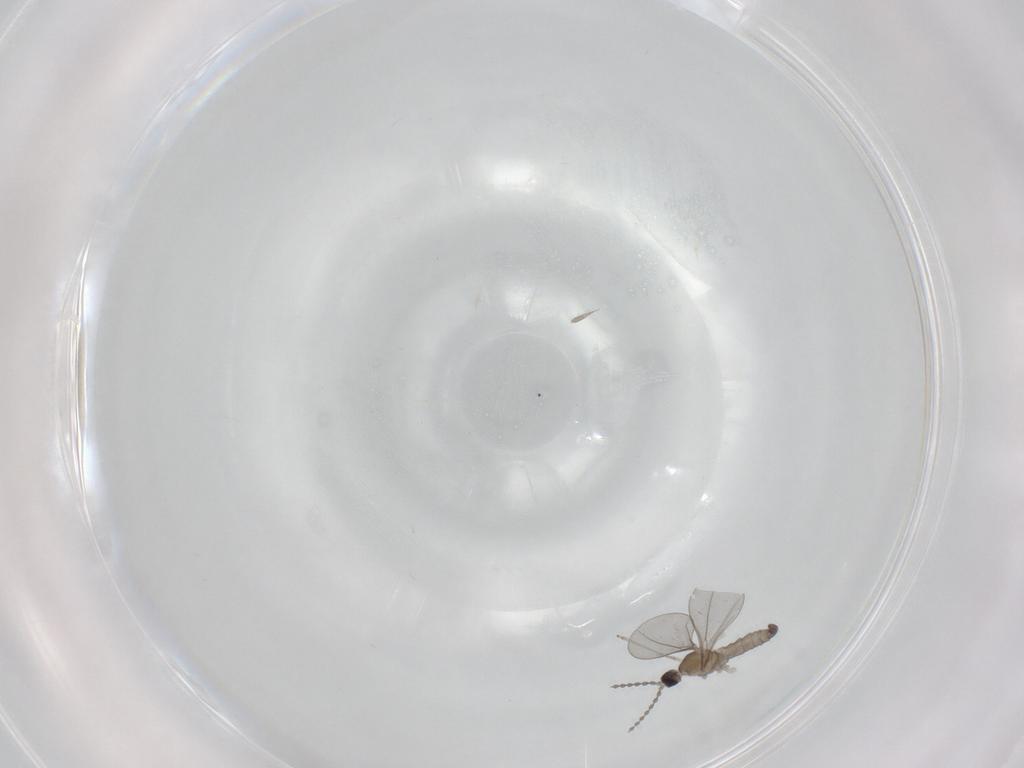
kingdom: Animalia
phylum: Arthropoda
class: Insecta
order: Diptera
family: Cecidomyiidae
